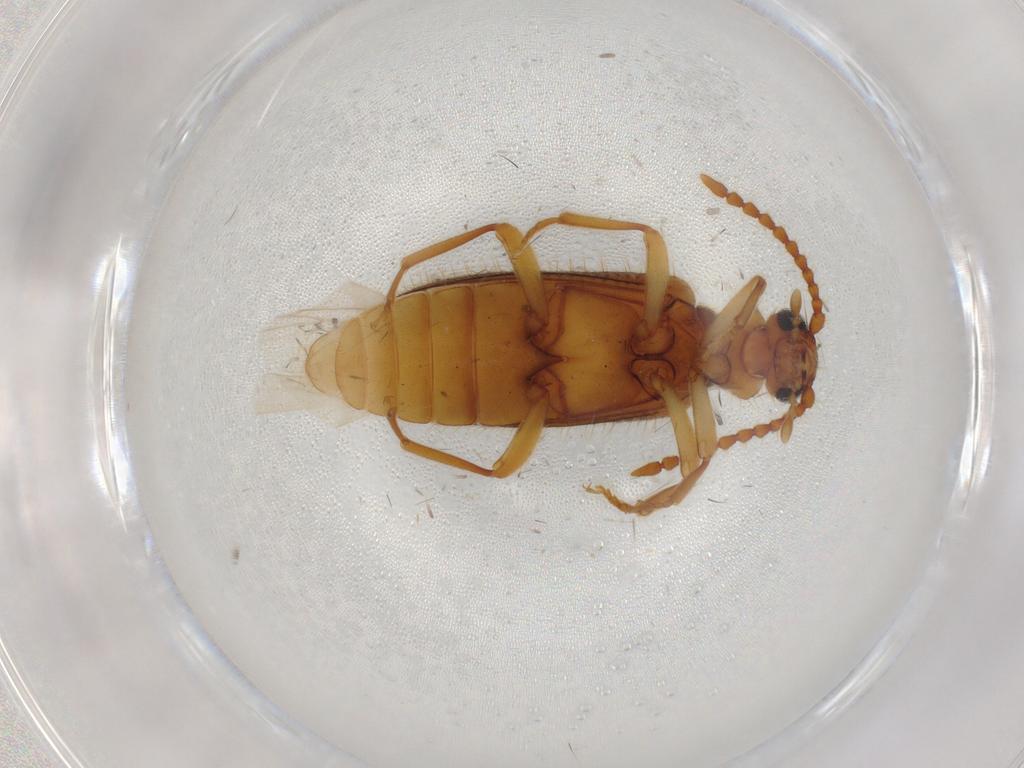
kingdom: Animalia
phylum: Arthropoda
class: Insecta
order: Coleoptera
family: Anthicidae
